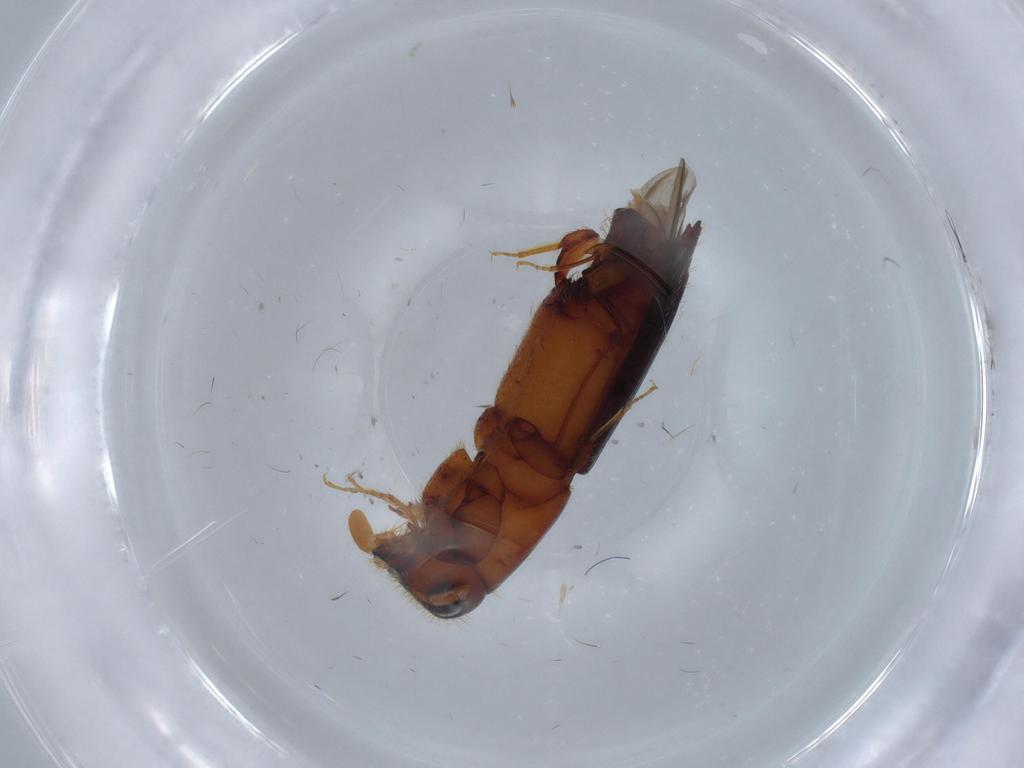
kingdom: Animalia
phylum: Arthropoda
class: Insecta
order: Coleoptera
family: Curculionidae
